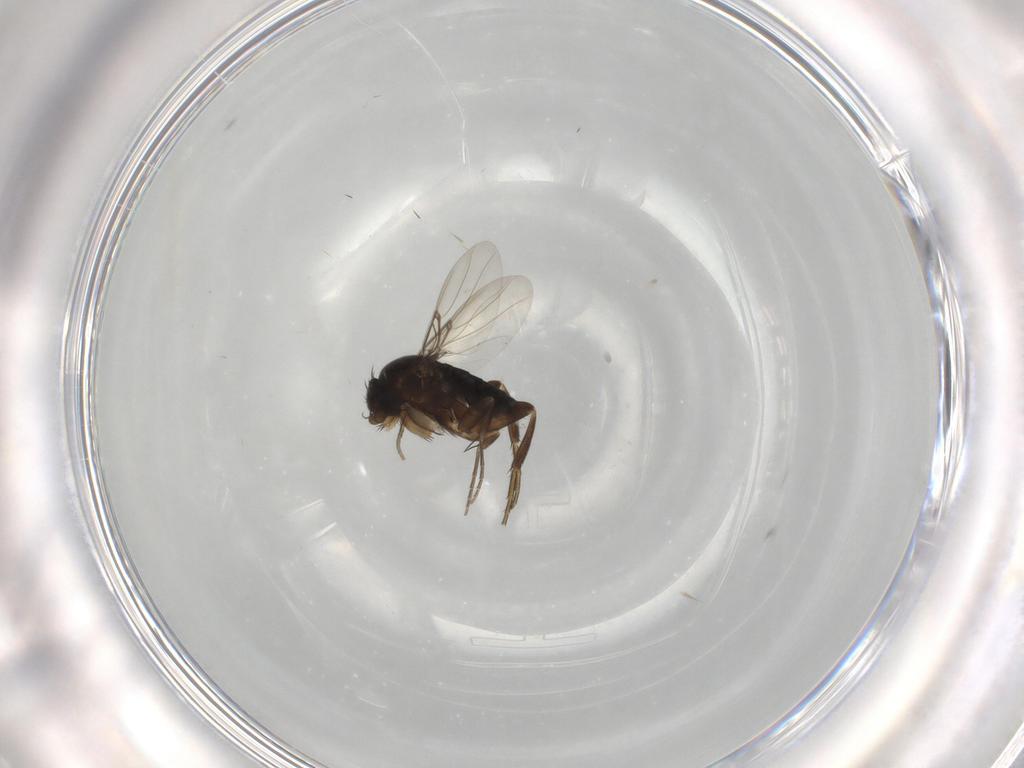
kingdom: Animalia
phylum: Arthropoda
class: Insecta
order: Diptera
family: Phoridae
